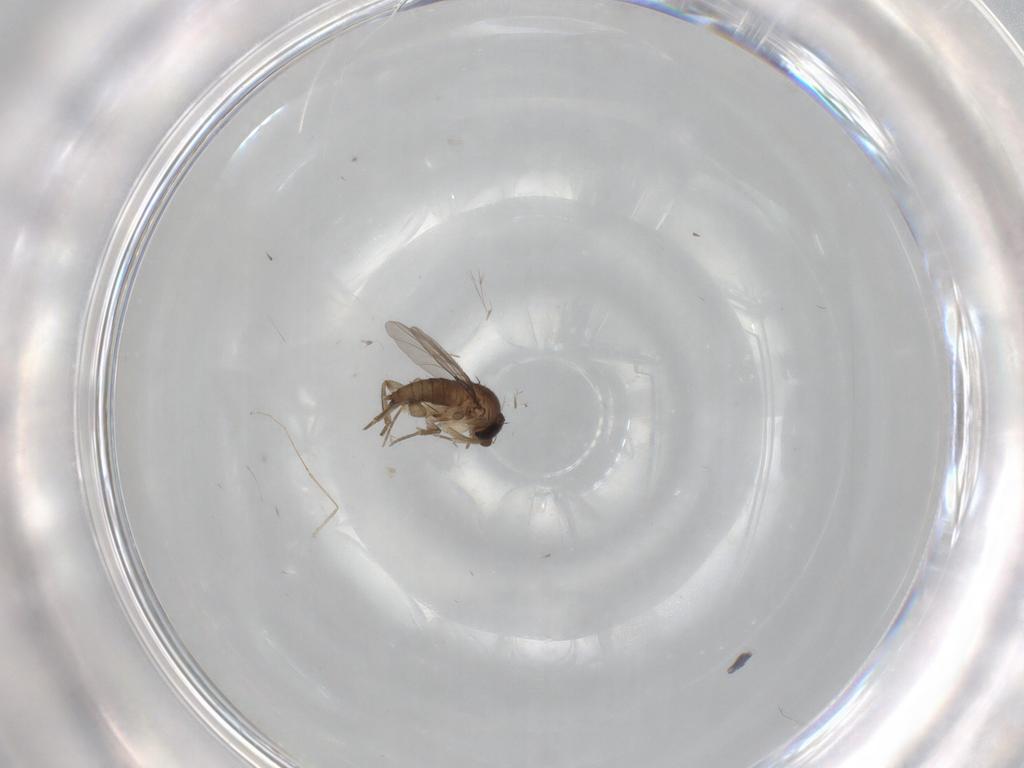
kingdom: Animalia
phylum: Arthropoda
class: Insecta
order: Diptera
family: Phoridae
